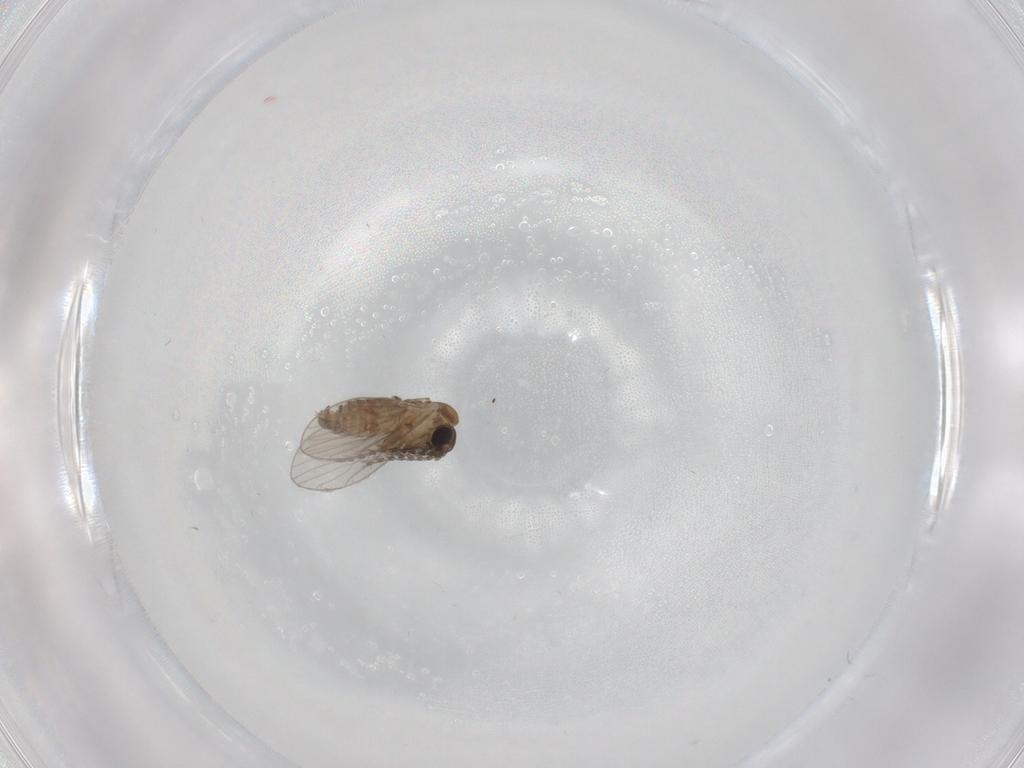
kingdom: Animalia
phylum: Arthropoda
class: Insecta
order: Diptera
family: Psychodidae
